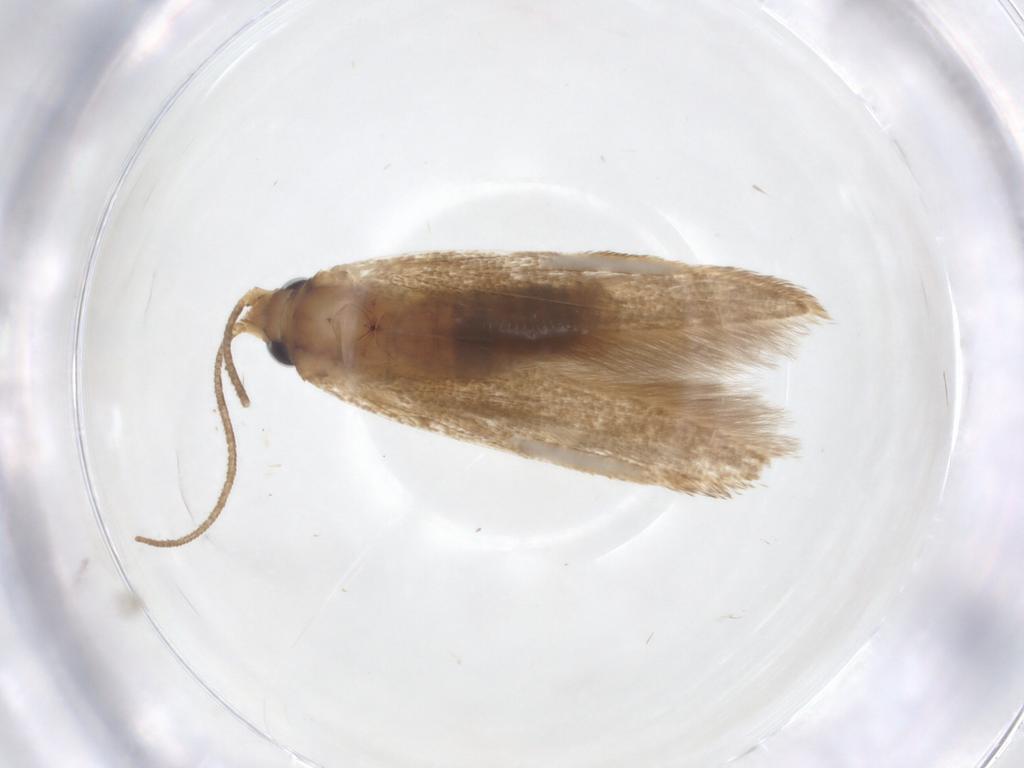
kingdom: Animalia
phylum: Arthropoda
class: Insecta
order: Lepidoptera
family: Blastobasidae
